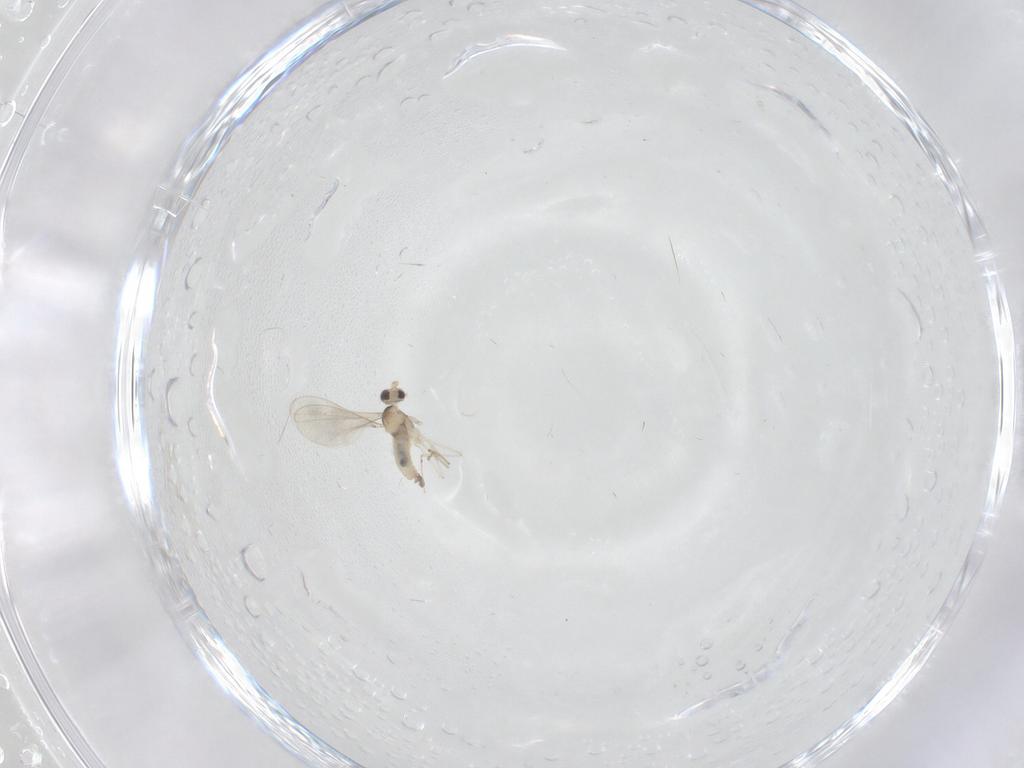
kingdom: Animalia
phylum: Arthropoda
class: Insecta
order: Diptera
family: Cecidomyiidae
